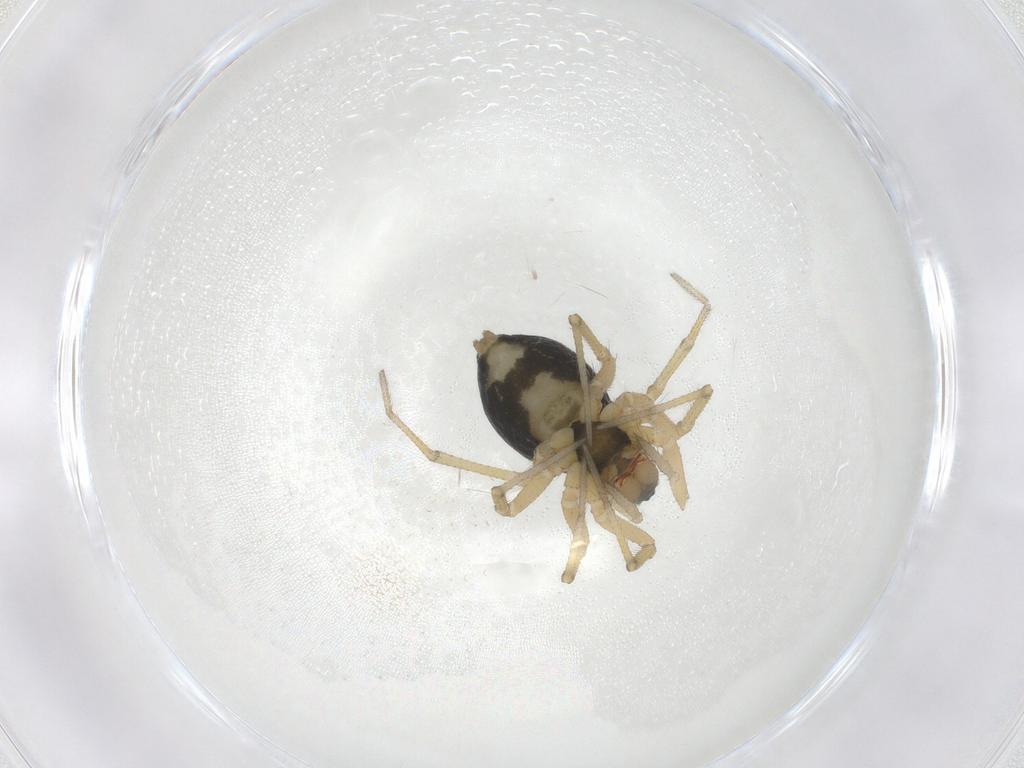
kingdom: Animalia
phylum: Arthropoda
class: Arachnida
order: Araneae
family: Linyphiidae
